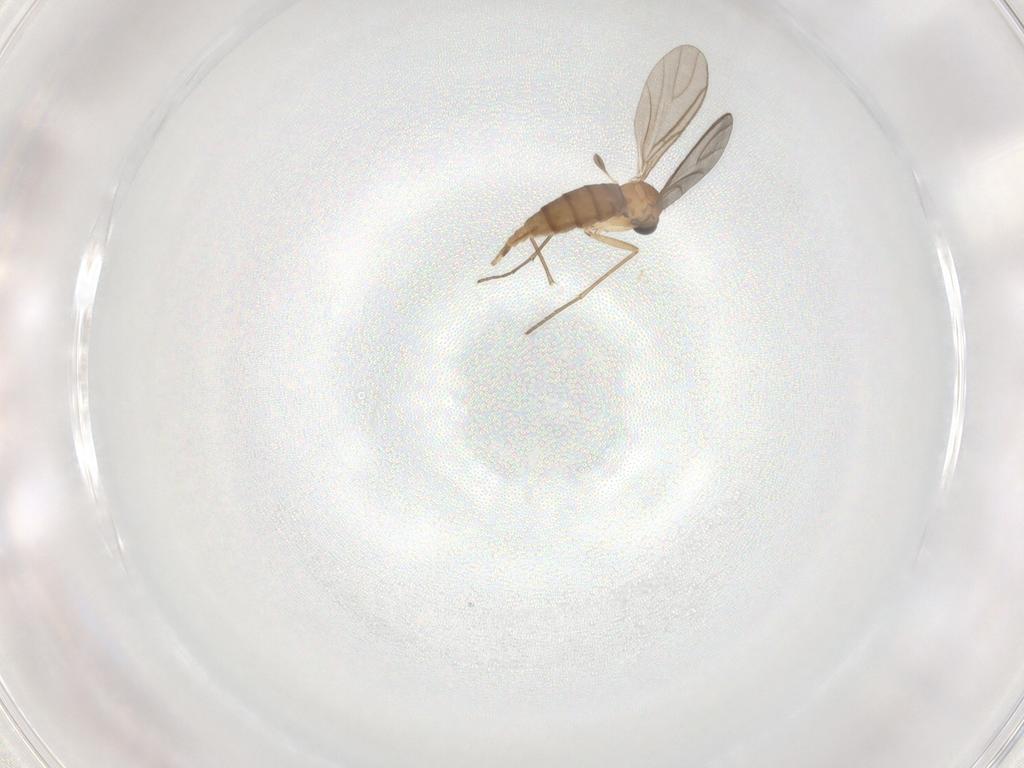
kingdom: Animalia
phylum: Arthropoda
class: Insecta
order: Diptera
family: Sciaridae
